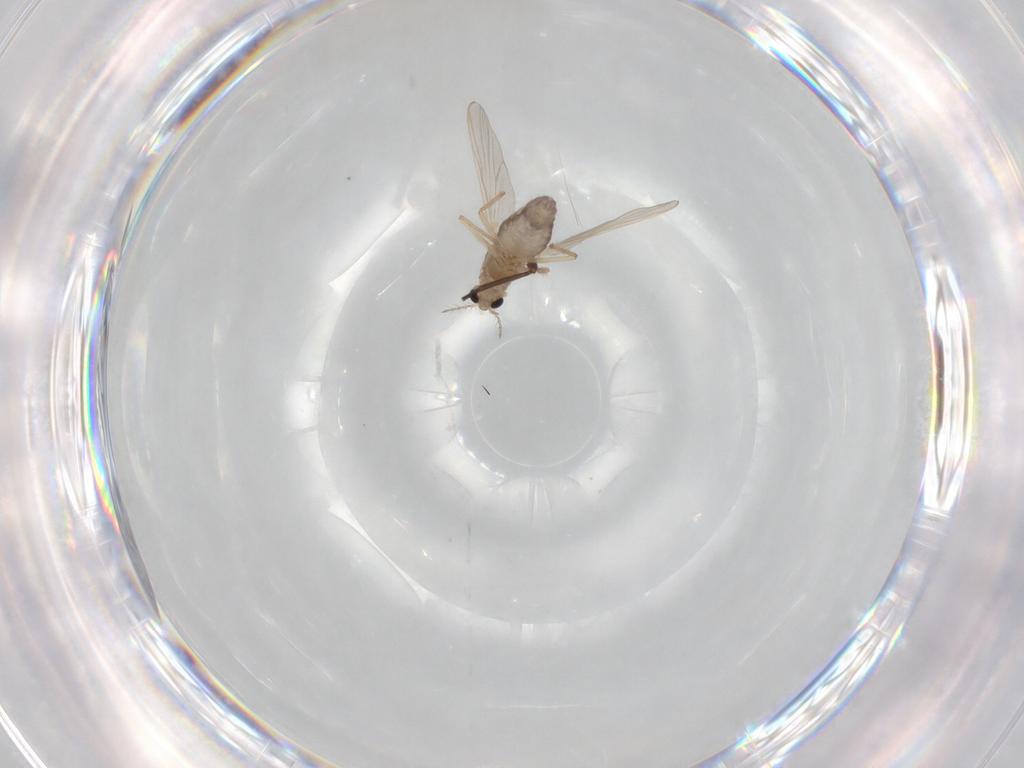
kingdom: Animalia
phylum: Arthropoda
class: Insecta
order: Diptera
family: Chironomidae
